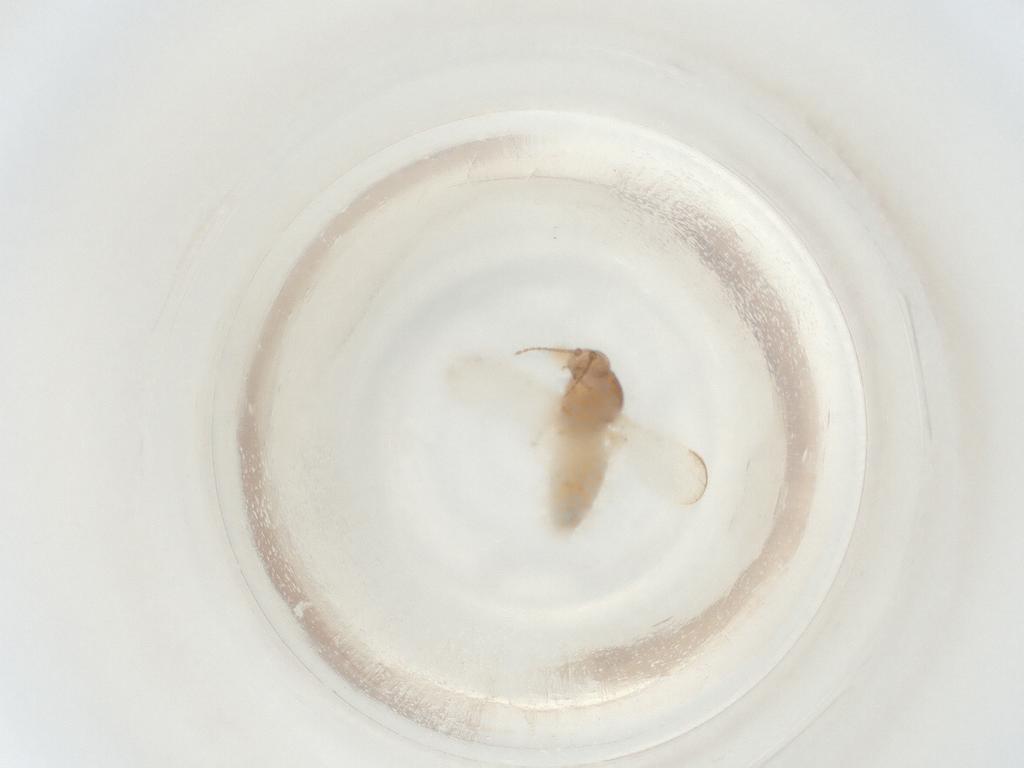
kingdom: Animalia
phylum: Arthropoda
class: Insecta
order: Diptera
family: Ceratopogonidae
